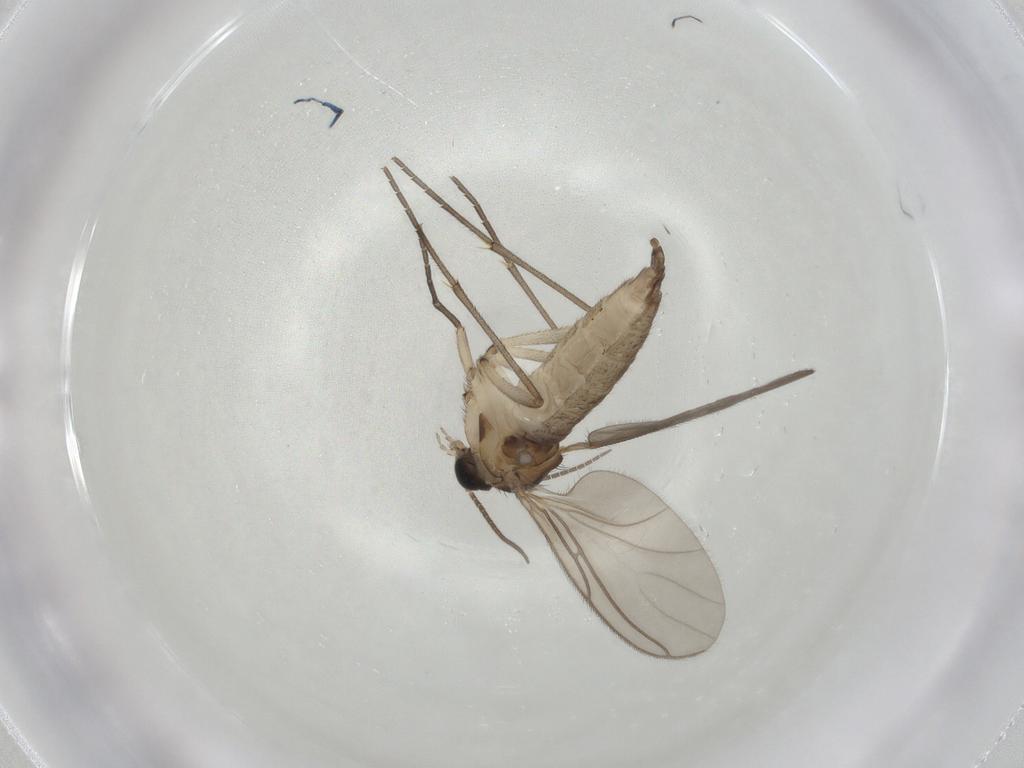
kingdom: Animalia
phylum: Arthropoda
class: Insecta
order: Diptera
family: Sciaridae
